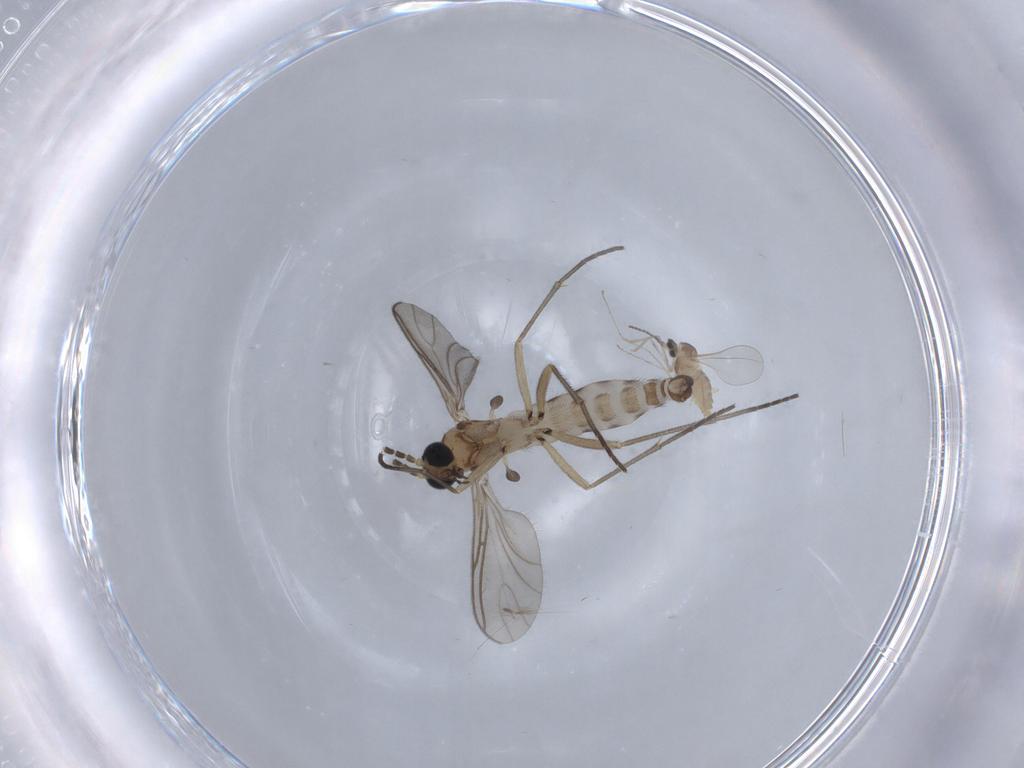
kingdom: Animalia
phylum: Arthropoda
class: Insecta
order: Diptera
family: Cecidomyiidae
